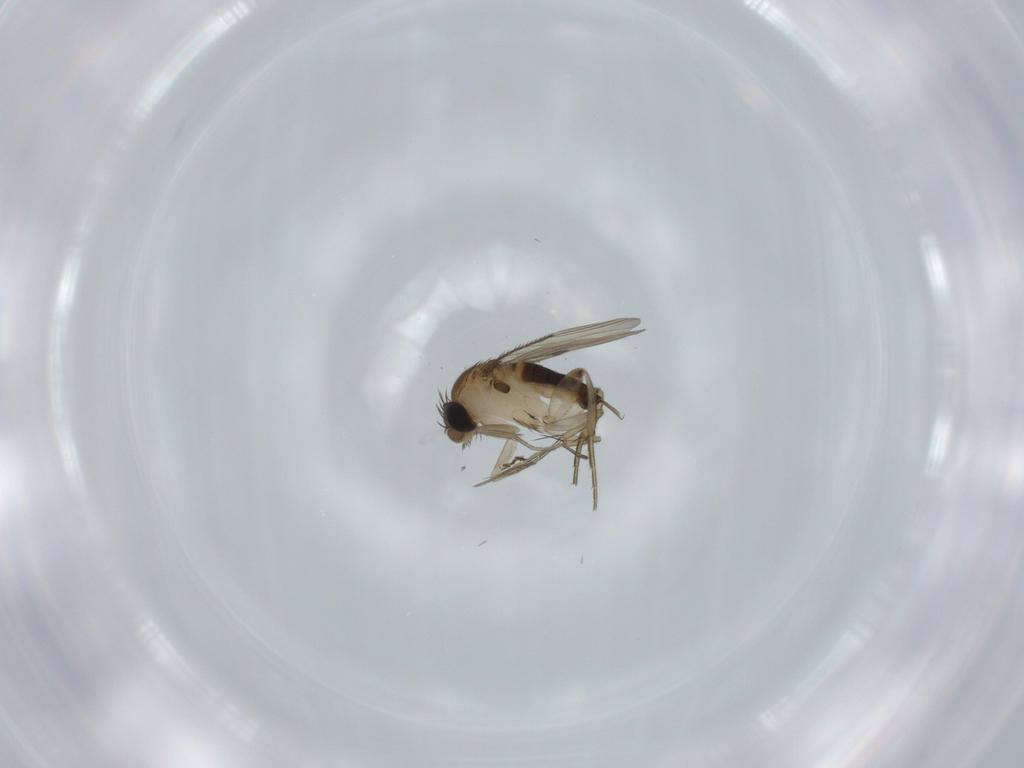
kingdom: Animalia
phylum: Arthropoda
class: Insecta
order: Diptera
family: Phoridae
